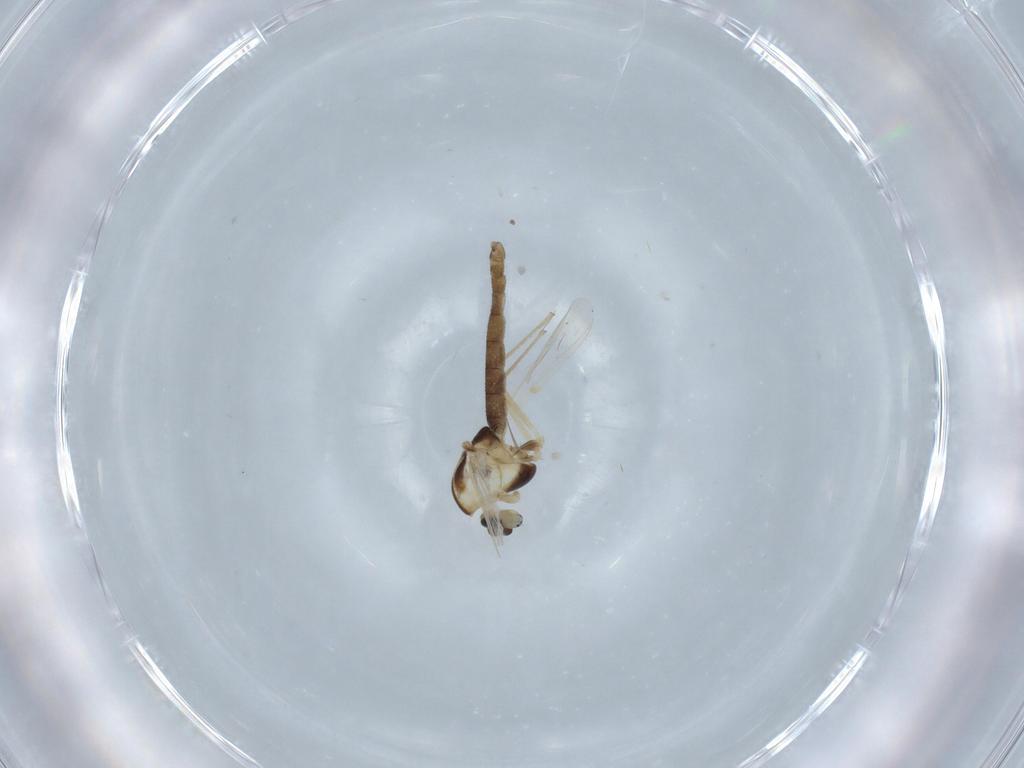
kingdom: Animalia
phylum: Arthropoda
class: Insecta
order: Diptera
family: Chironomidae
